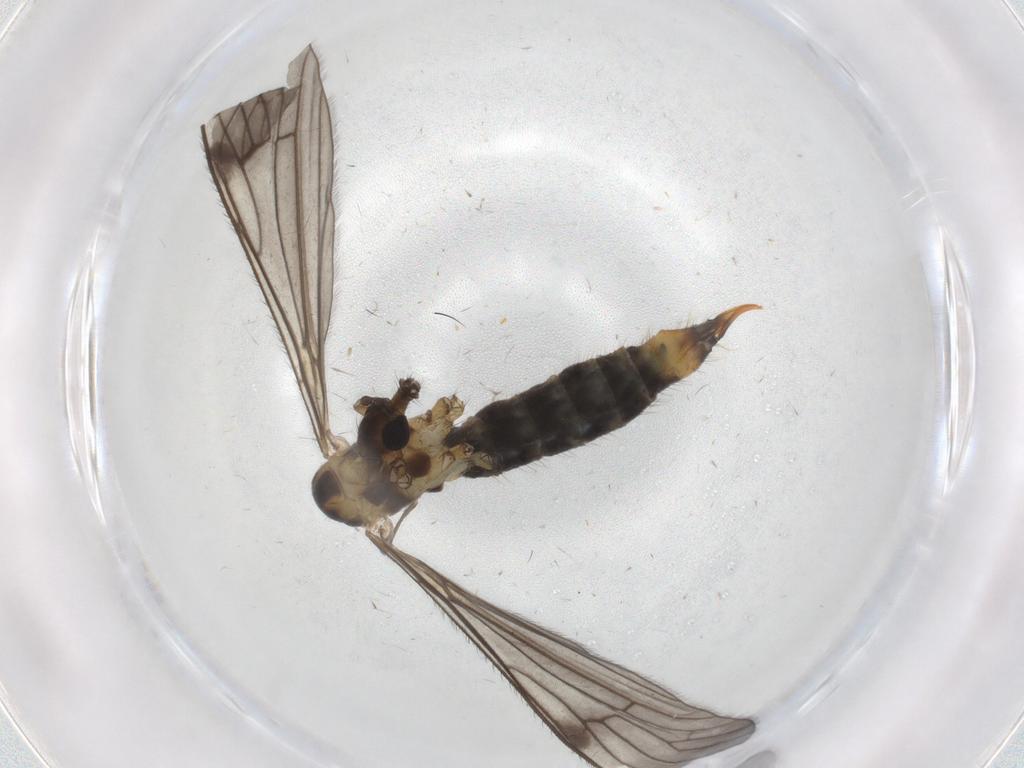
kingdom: Animalia
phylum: Arthropoda
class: Insecta
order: Diptera
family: Limoniidae
